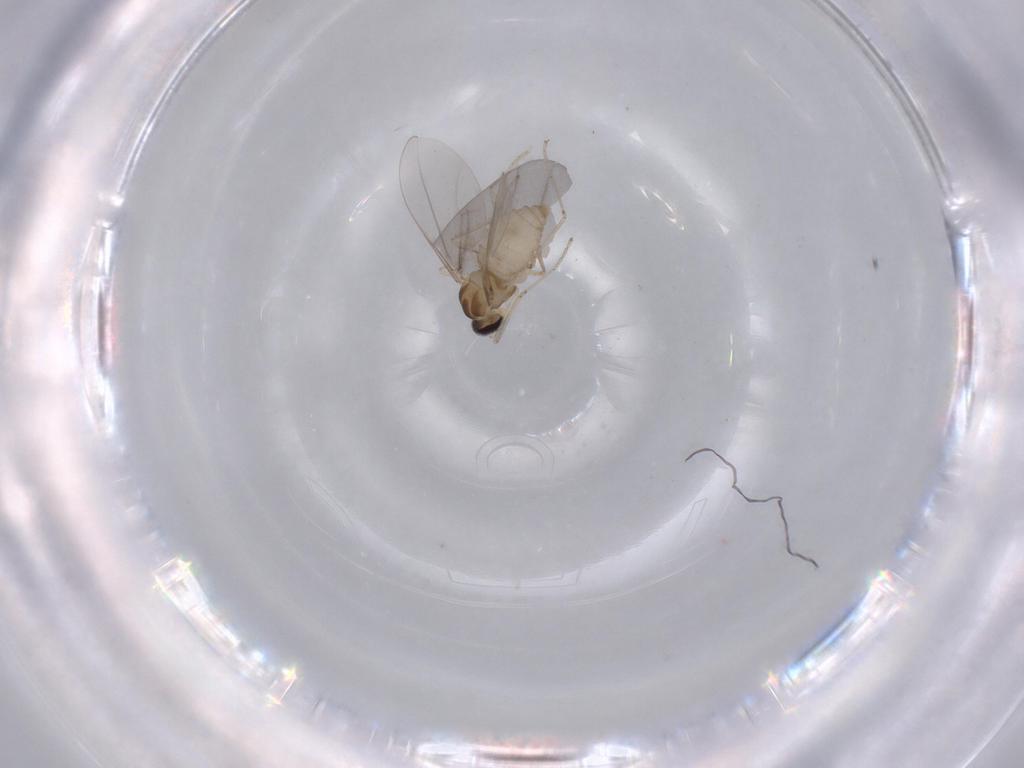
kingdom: Animalia
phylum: Arthropoda
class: Insecta
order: Diptera
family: Cecidomyiidae
